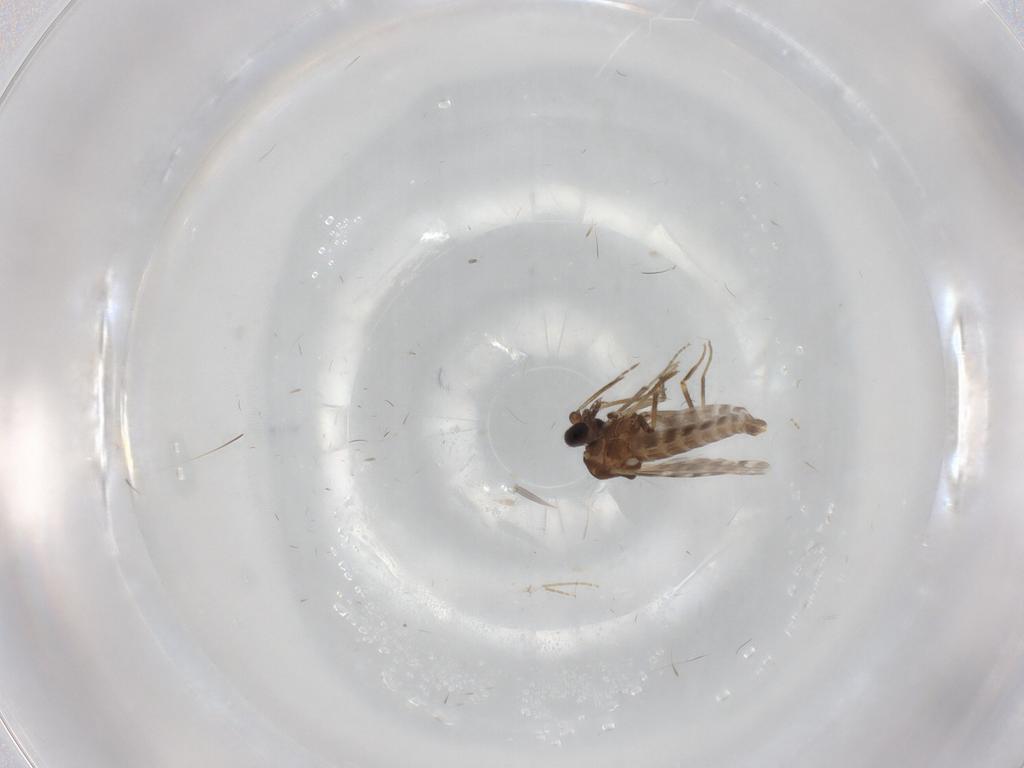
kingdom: Animalia
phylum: Arthropoda
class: Insecta
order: Diptera
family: Ceratopogonidae
